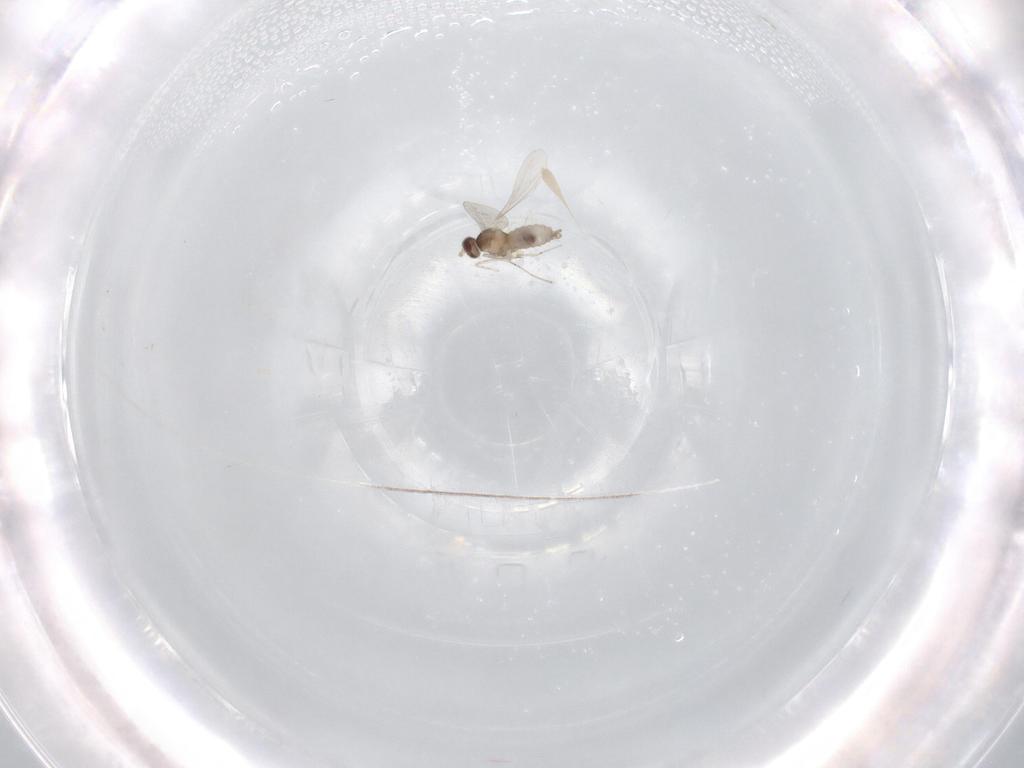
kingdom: Animalia
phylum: Arthropoda
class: Insecta
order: Diptera
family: Cecidomyiidae
